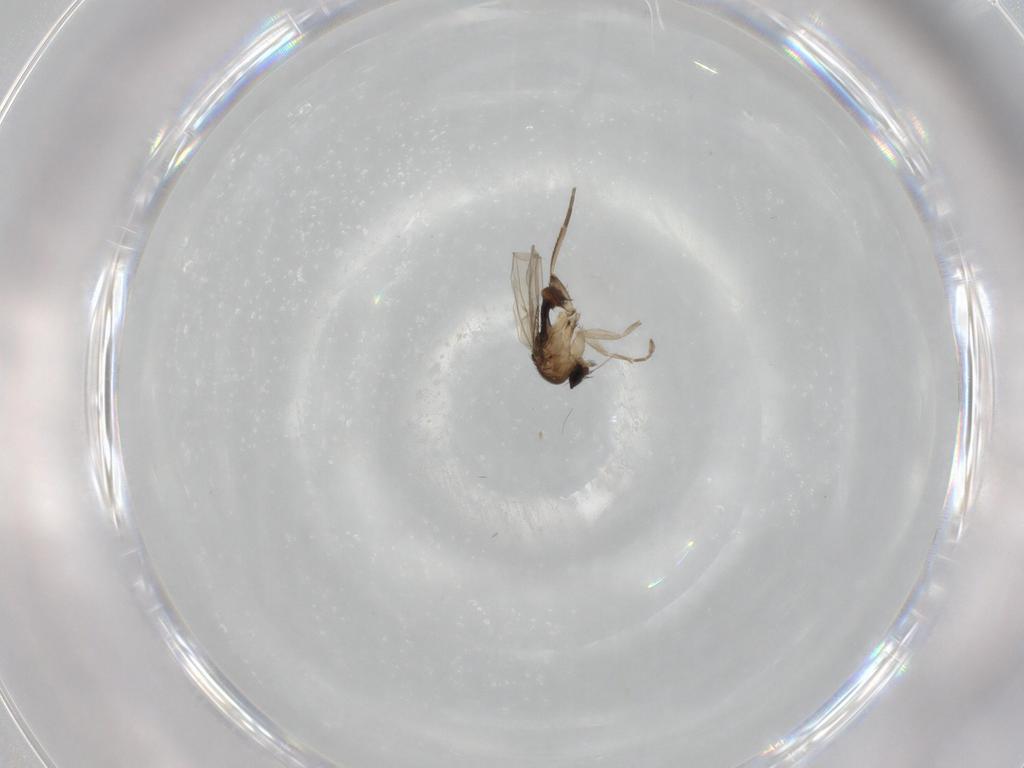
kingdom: Animalia
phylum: Arthropoda
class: Insecta
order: Diptera
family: Phoridae
